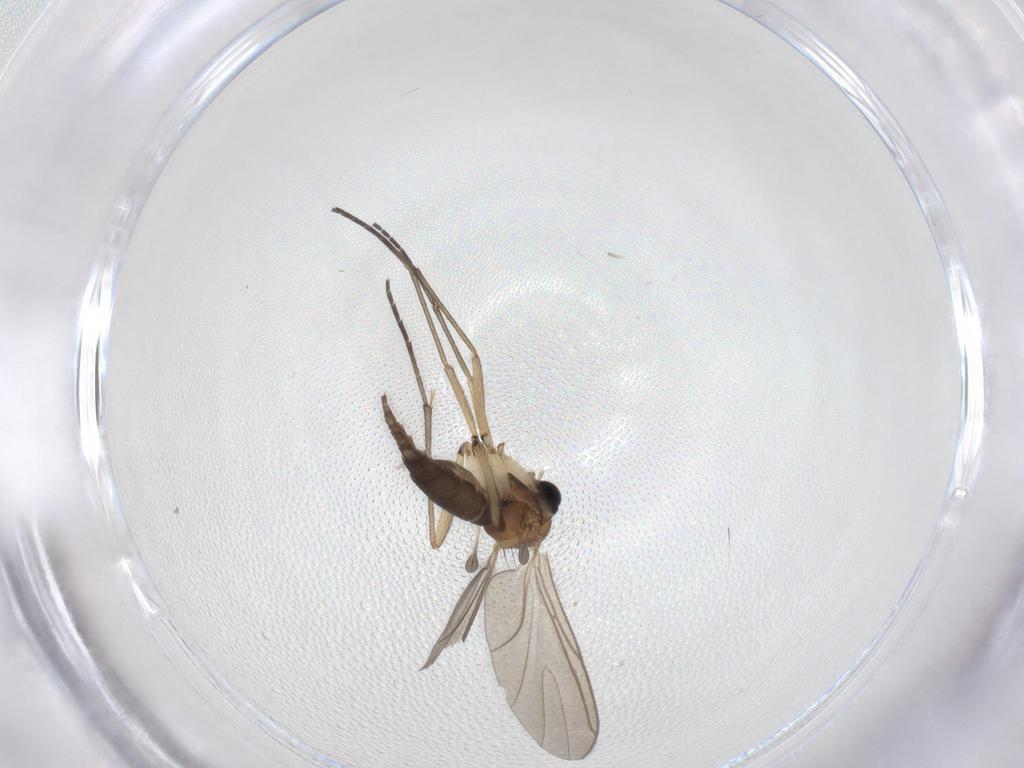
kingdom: Animalia
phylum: Arthropoda
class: Insecta
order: Diptera
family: Sciaridae
